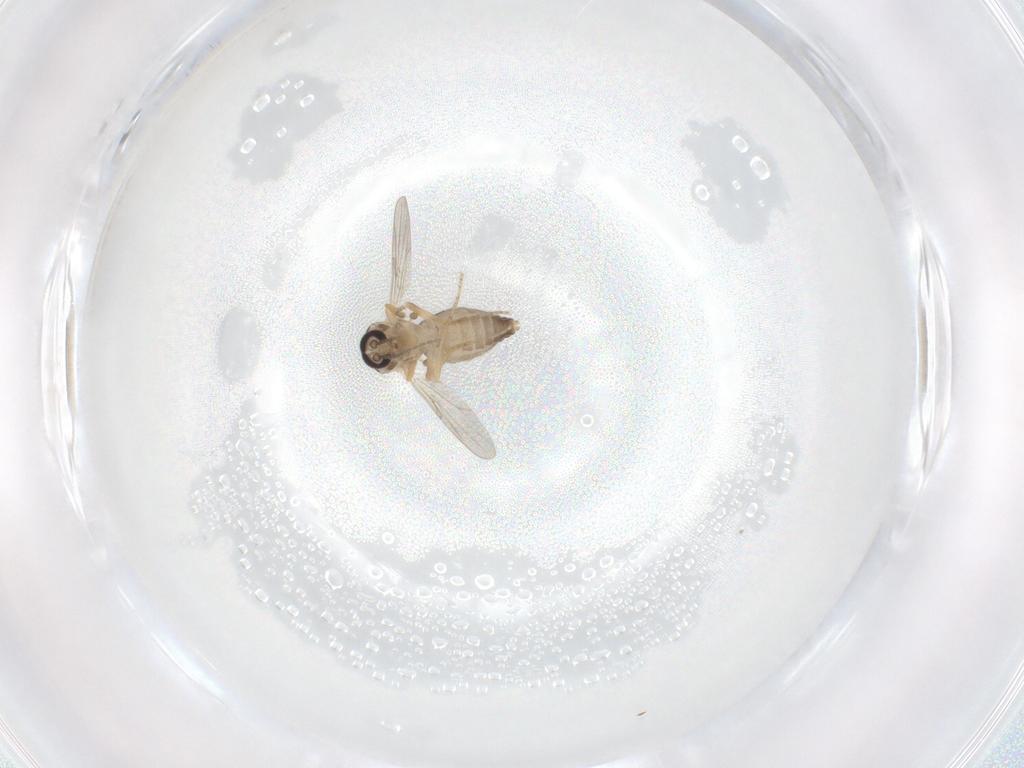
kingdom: Animalia
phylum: Arthropoda
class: Insecta
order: Diptera
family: Ceratopogonidae
